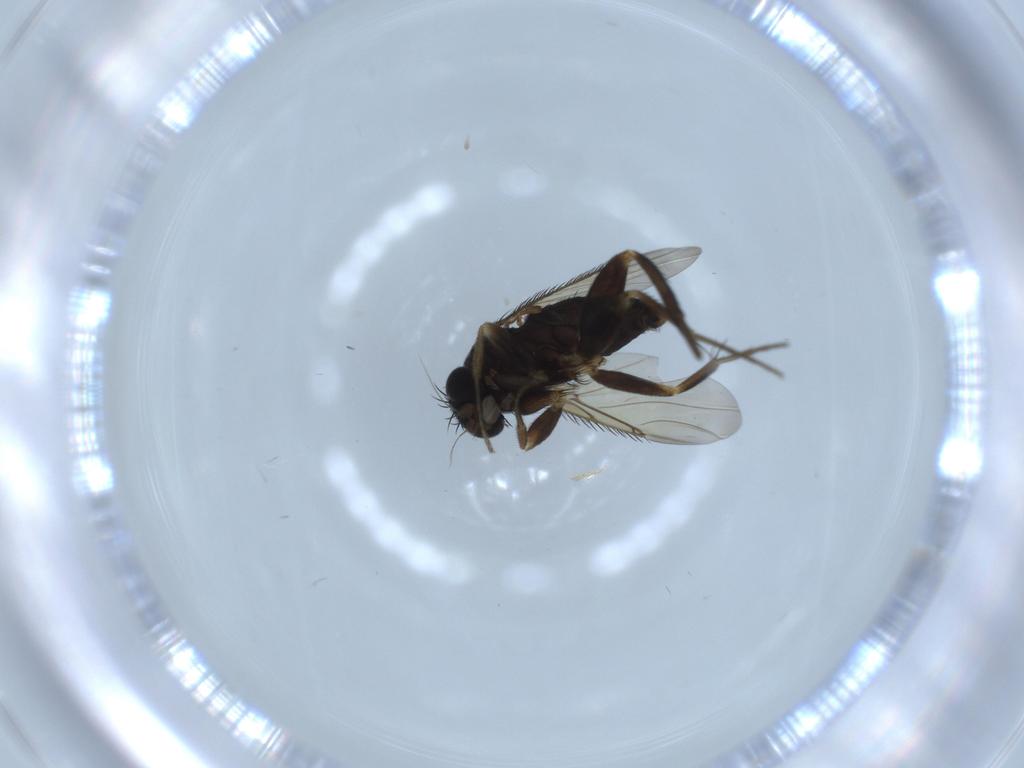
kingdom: Animalia
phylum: Arthropoda
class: Insecta
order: Diptera
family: Phoridae
